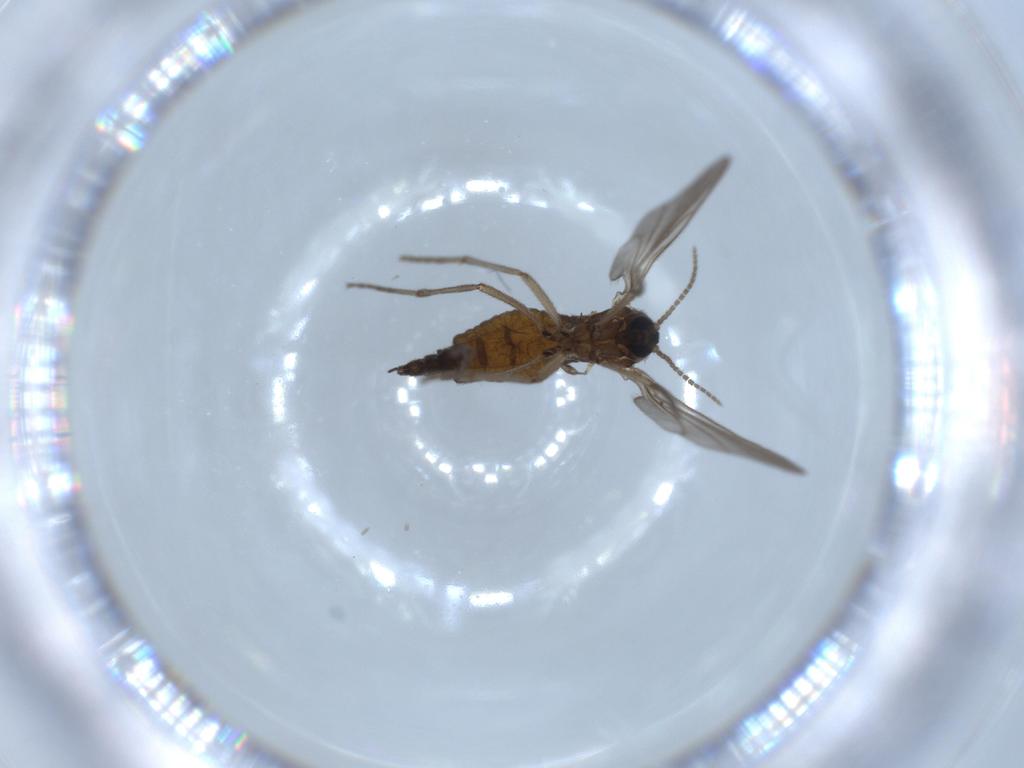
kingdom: Animalia
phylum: Arthropoda
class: Insecta
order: Diptera
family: Sciaridae
